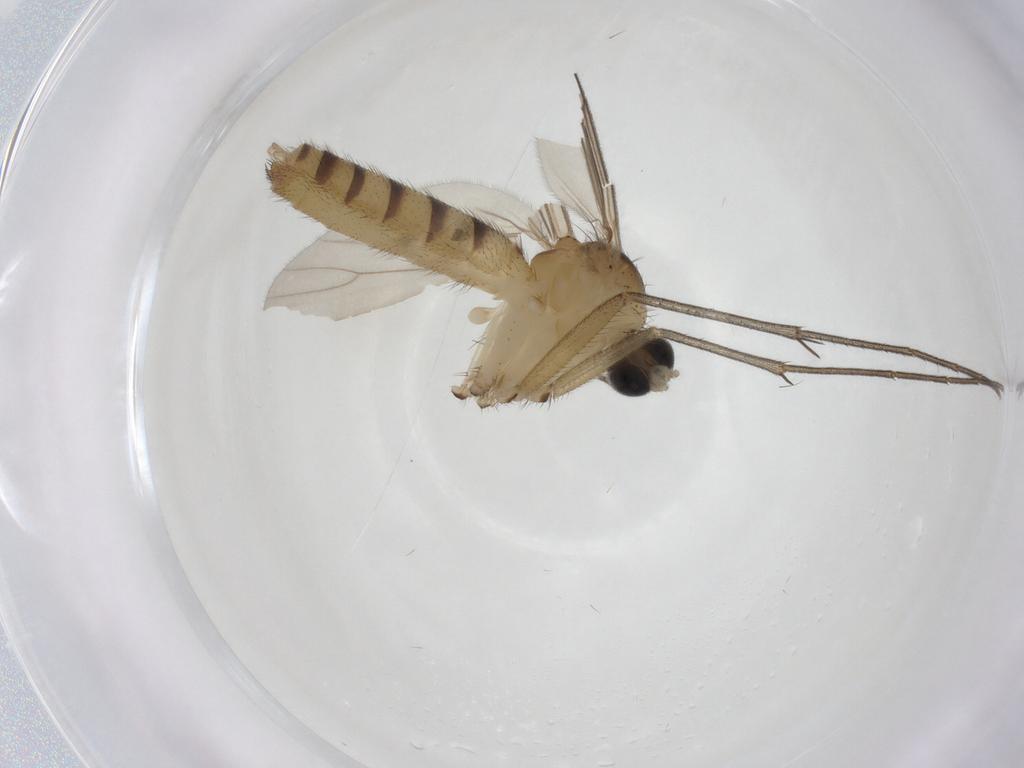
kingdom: Animalia
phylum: Arthropoda
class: Insecta
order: Diptera
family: Mycetophilidae
